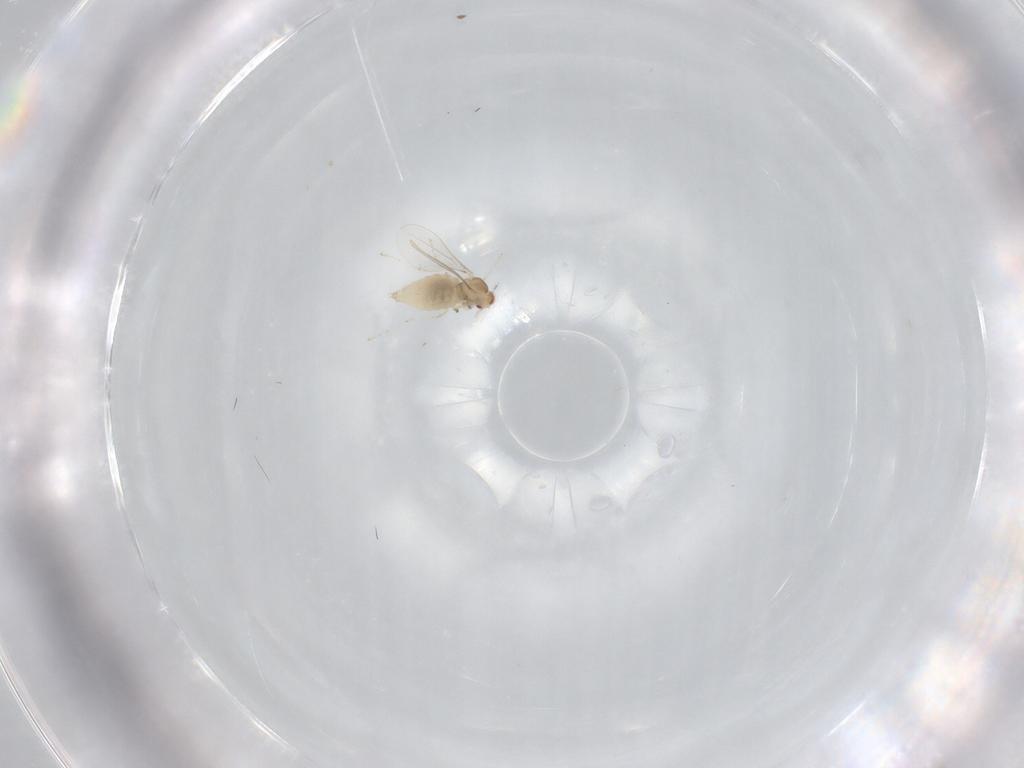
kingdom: Animalia
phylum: Arthropoda
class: Insecta
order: Diptera
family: Cecidomyiidae
